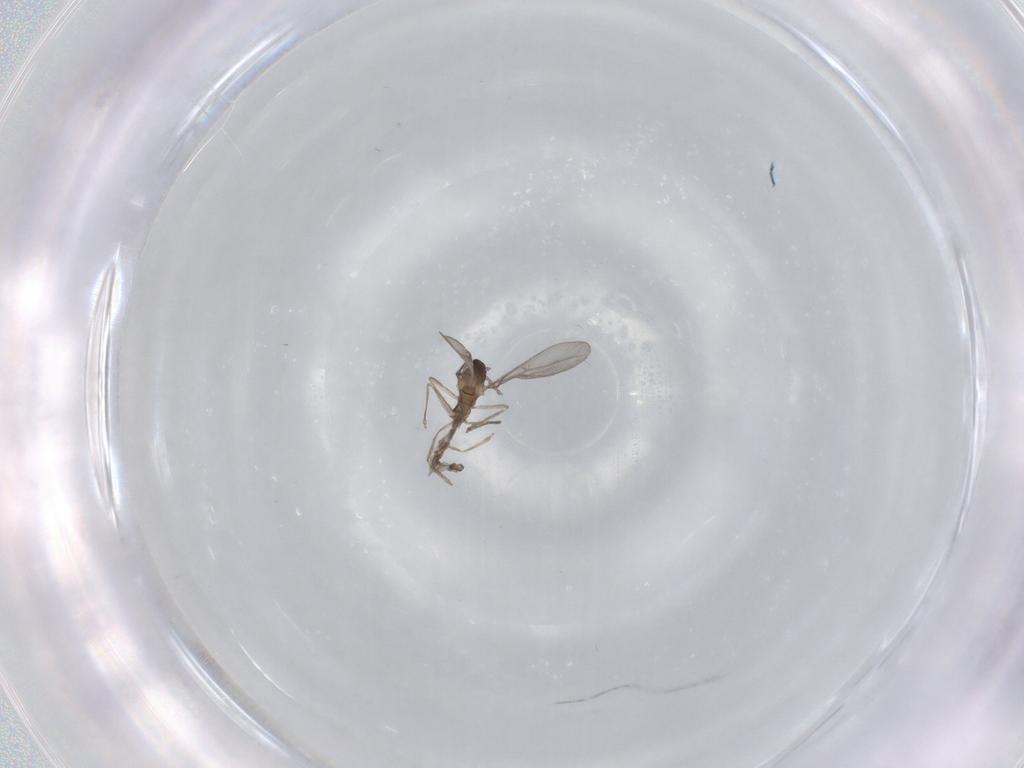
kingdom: Animalia
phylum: Arthropoda
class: Insecta
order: Diptera
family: Cecidomyiidae
